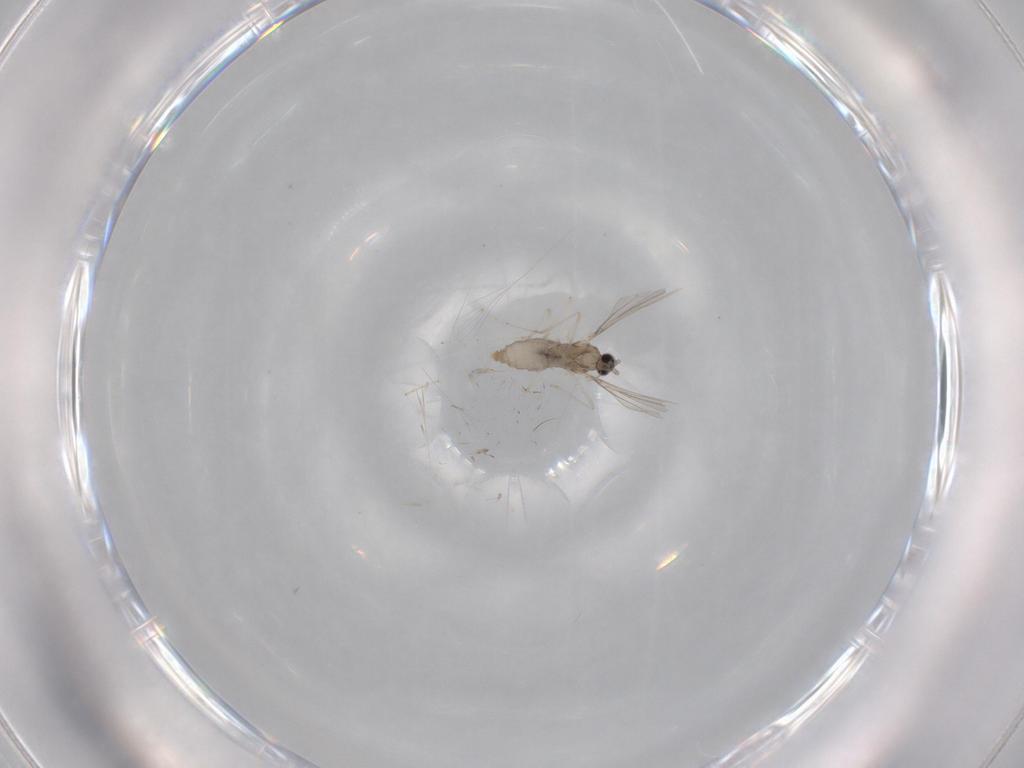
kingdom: Animalia
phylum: Arthropoda
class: Insecta
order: Diptera
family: Cecidomyiidae
